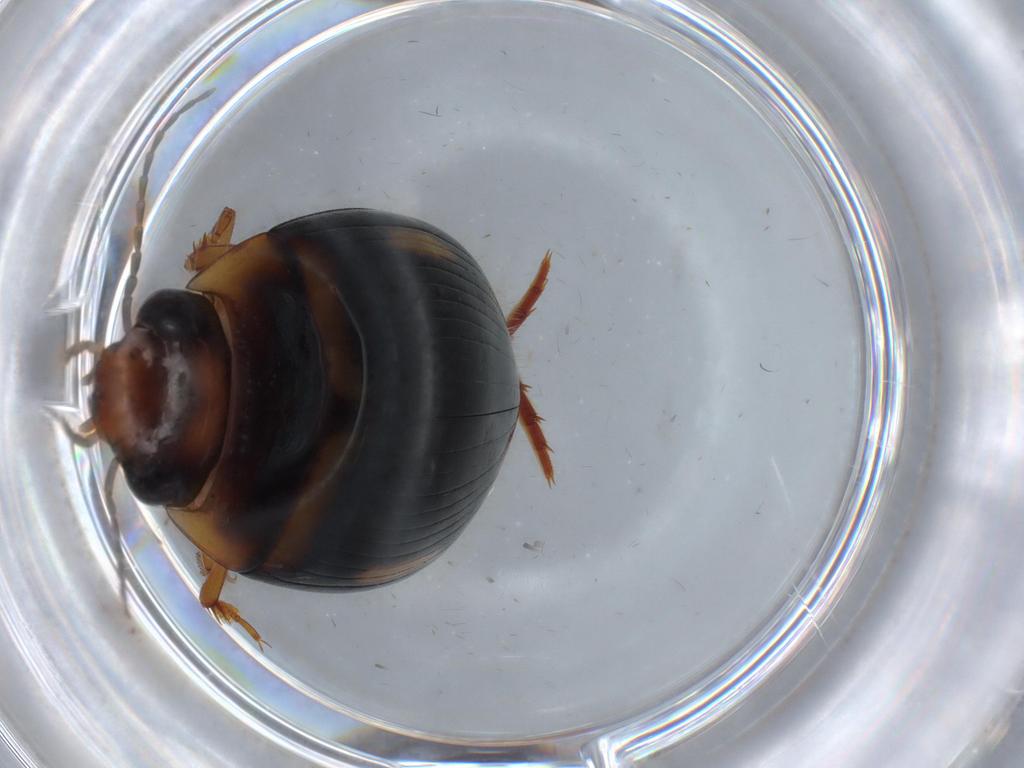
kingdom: Animalia
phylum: Arthropoda
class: Insecta
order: Coleoptera
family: Dytiscidae
